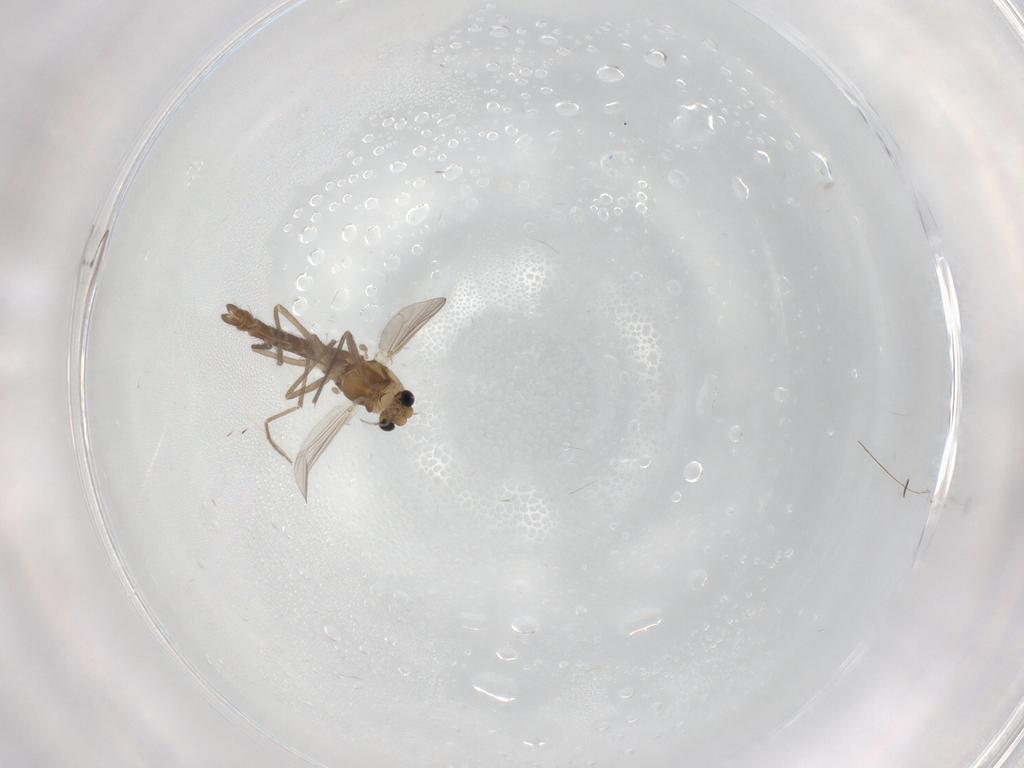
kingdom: Animalia
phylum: Arthropoda
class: Insecta
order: Diptera
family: Chironomidae
